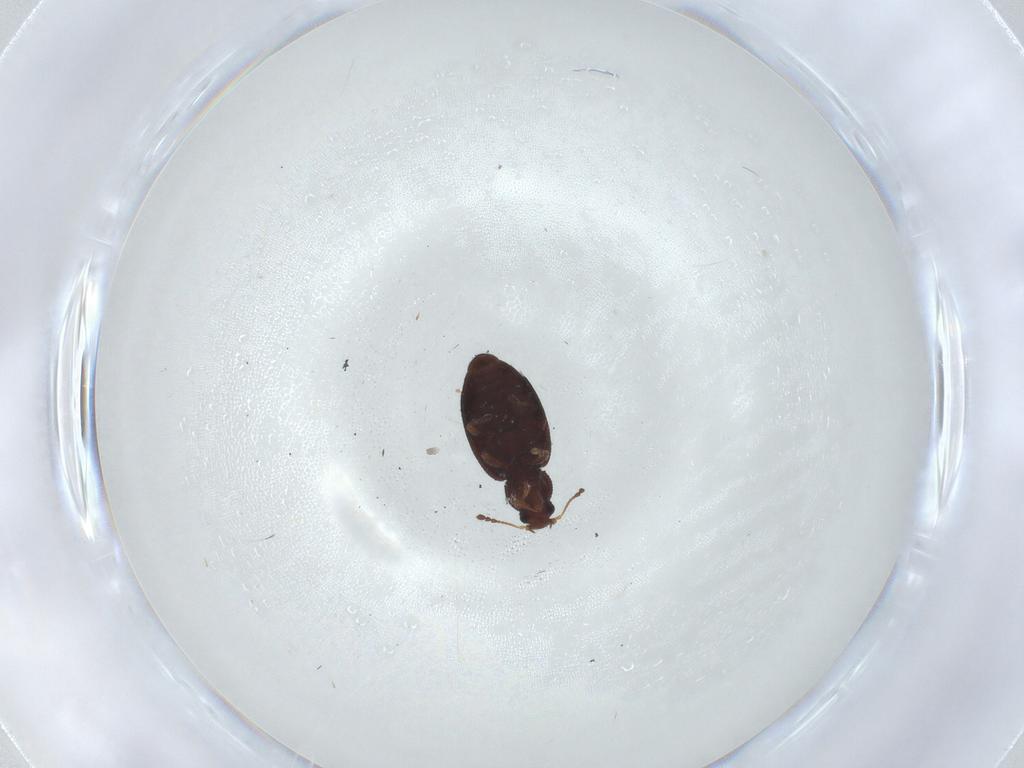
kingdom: Animalia
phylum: Arthropoda
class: Insecta
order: Coleoptera
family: Latridiidae
